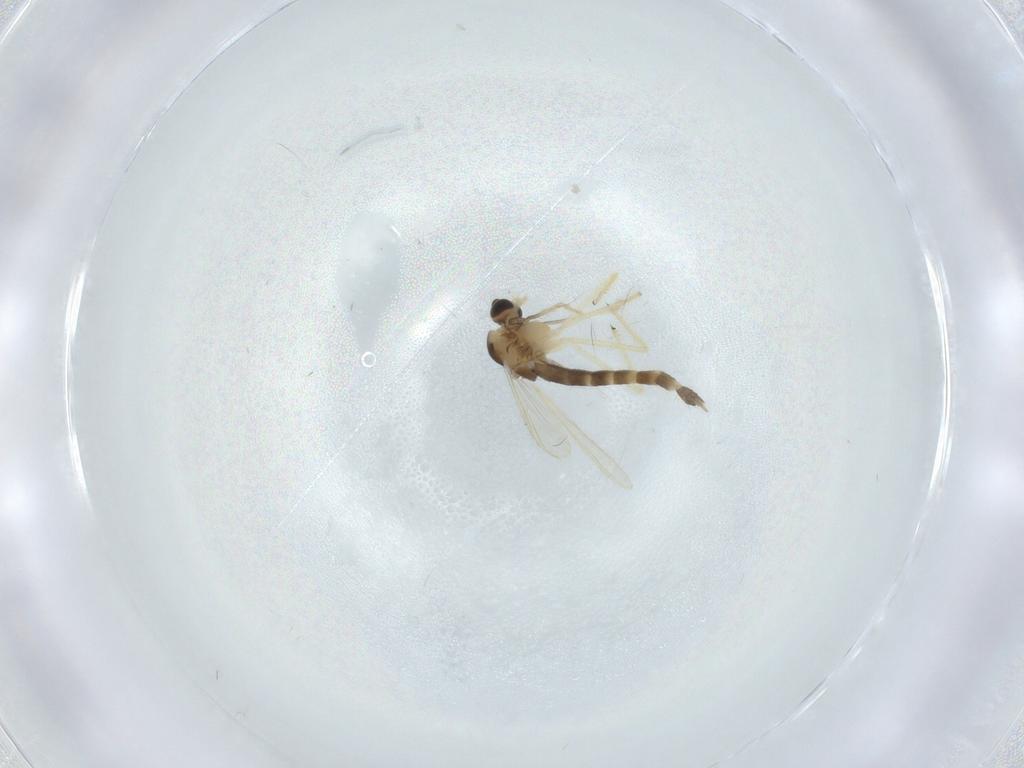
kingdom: Animalia
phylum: Arthropoda
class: Insecta
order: Diptera
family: Chironomidae
